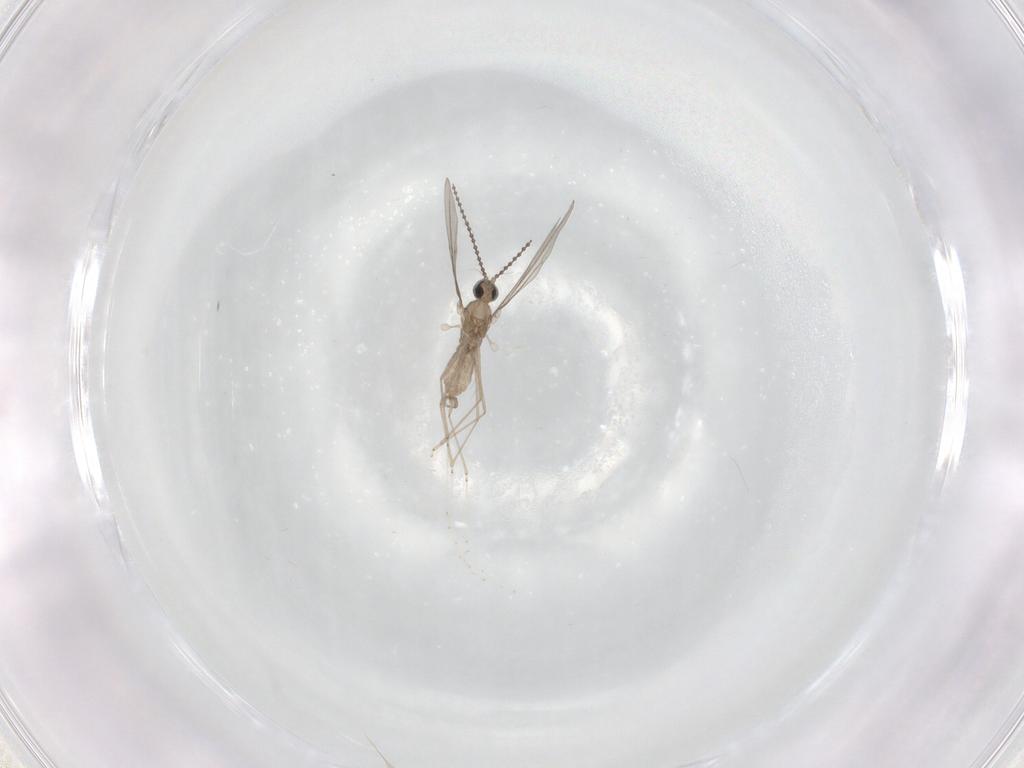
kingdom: Animalia
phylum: Arthropoda
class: Insecta
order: Diptera
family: Cecidomyiidae
